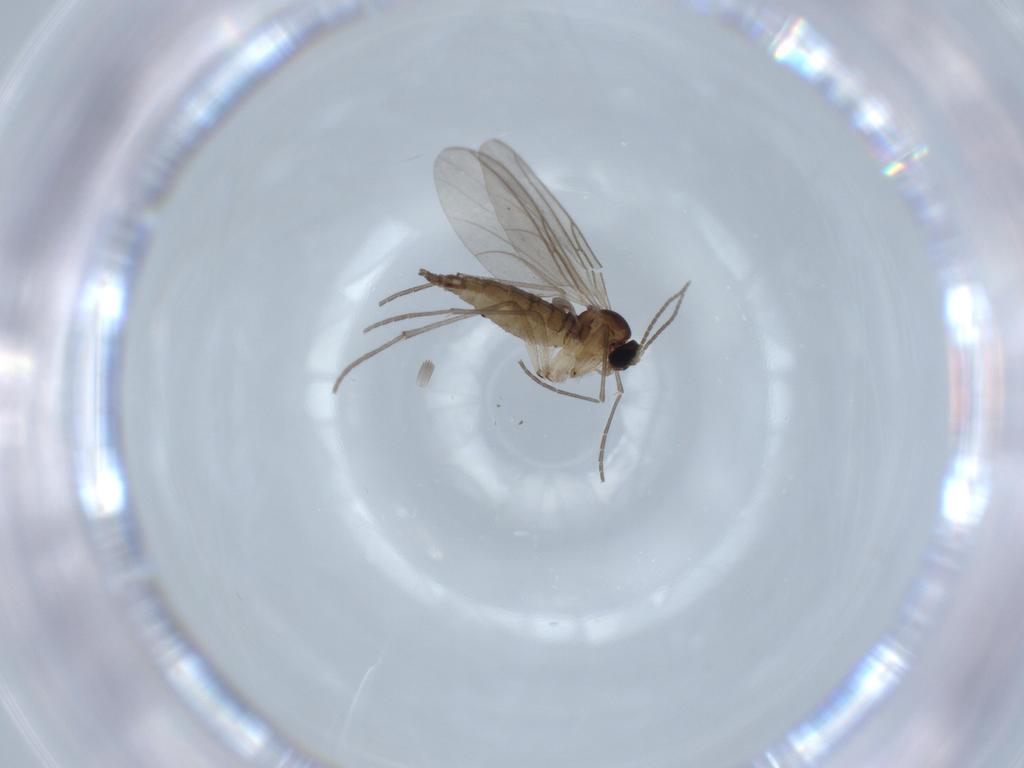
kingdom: Animalia
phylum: Arthropoda
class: Insecta
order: Diptera
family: Sciaridae
